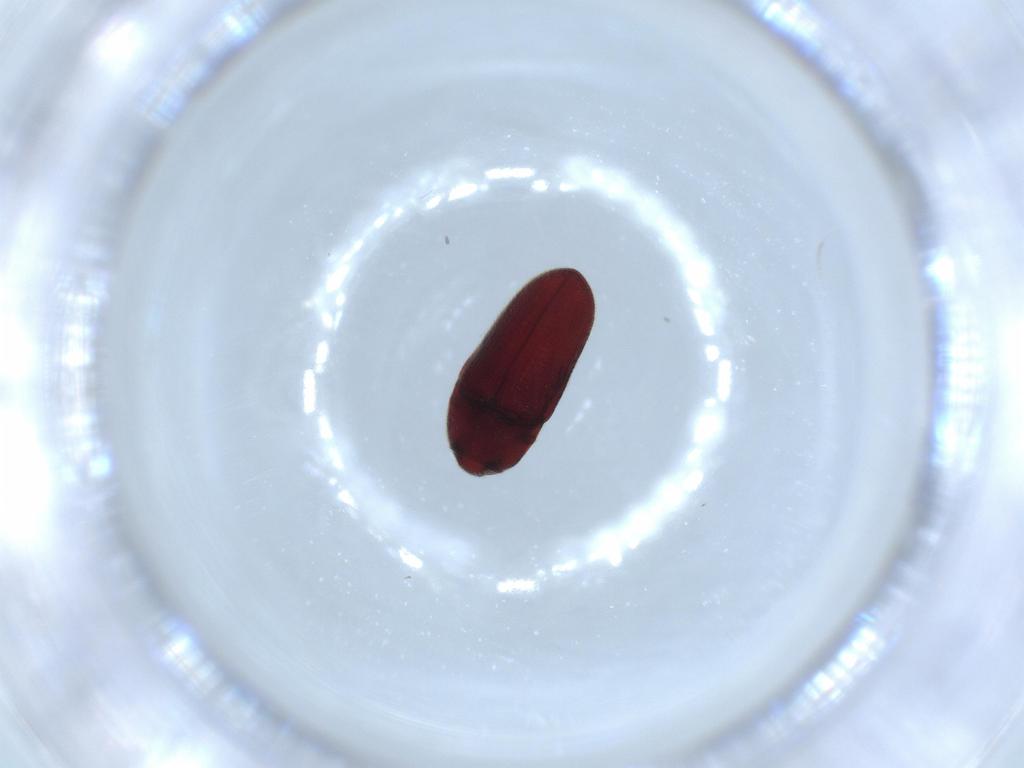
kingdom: Animalia
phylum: Arthropoda
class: Insecta
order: Coleoptera
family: Throscidae
